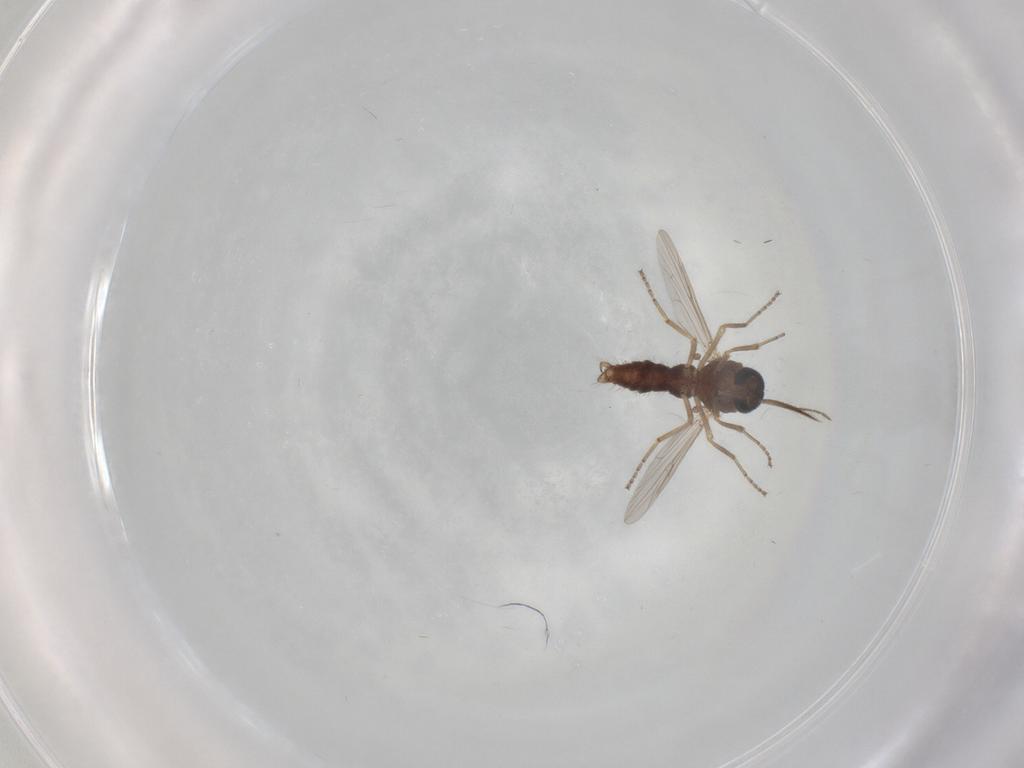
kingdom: Animalia
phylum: Arthropoda
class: Insecta
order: Diptera
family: Ceratopogonidae
